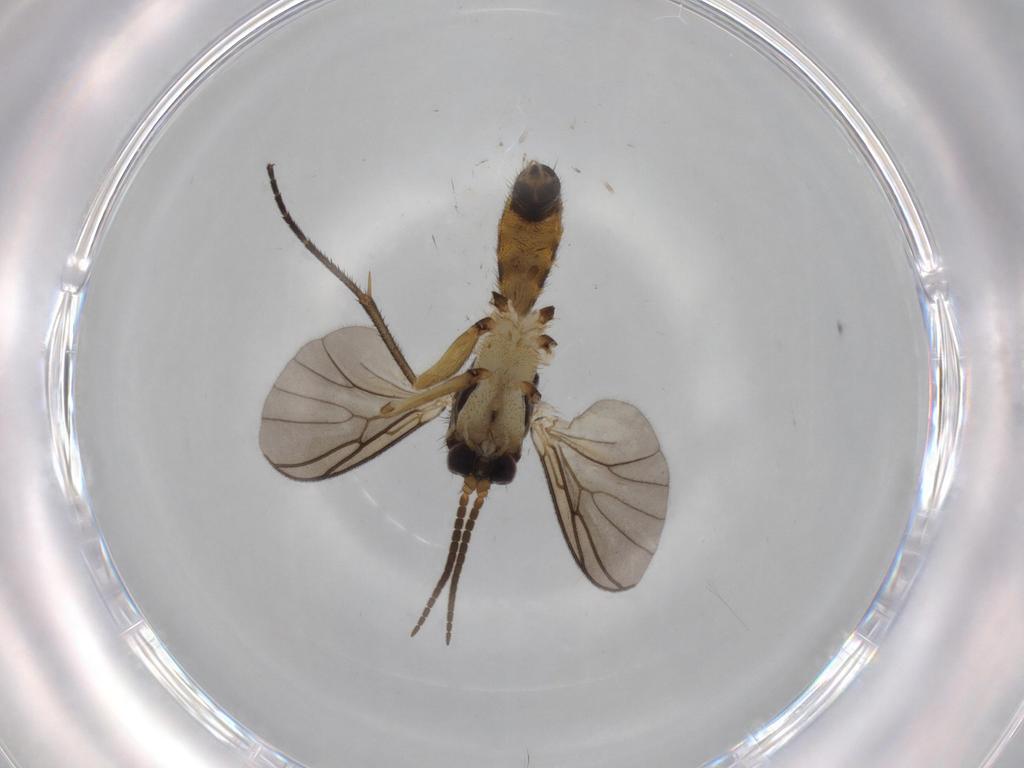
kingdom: Animalia
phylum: Arthropoda
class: Insecta
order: Diptera
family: Mycetophilidae
